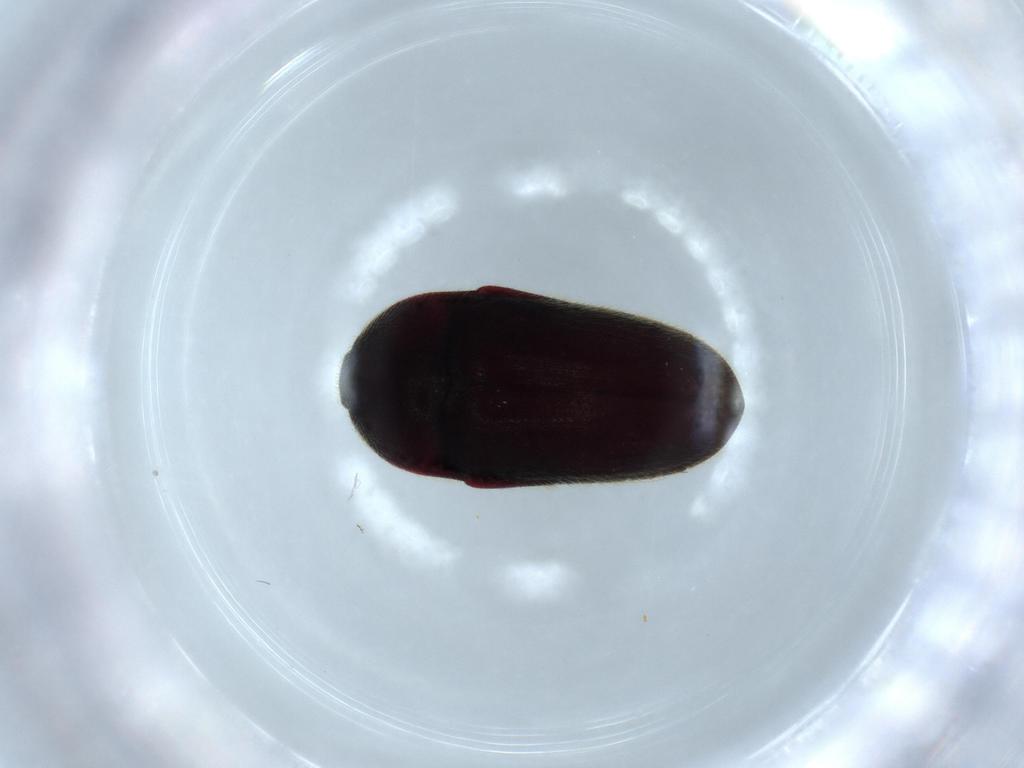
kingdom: Animalia
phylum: Arthropoda
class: Insecta
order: Coleoptera
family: Throscidae
